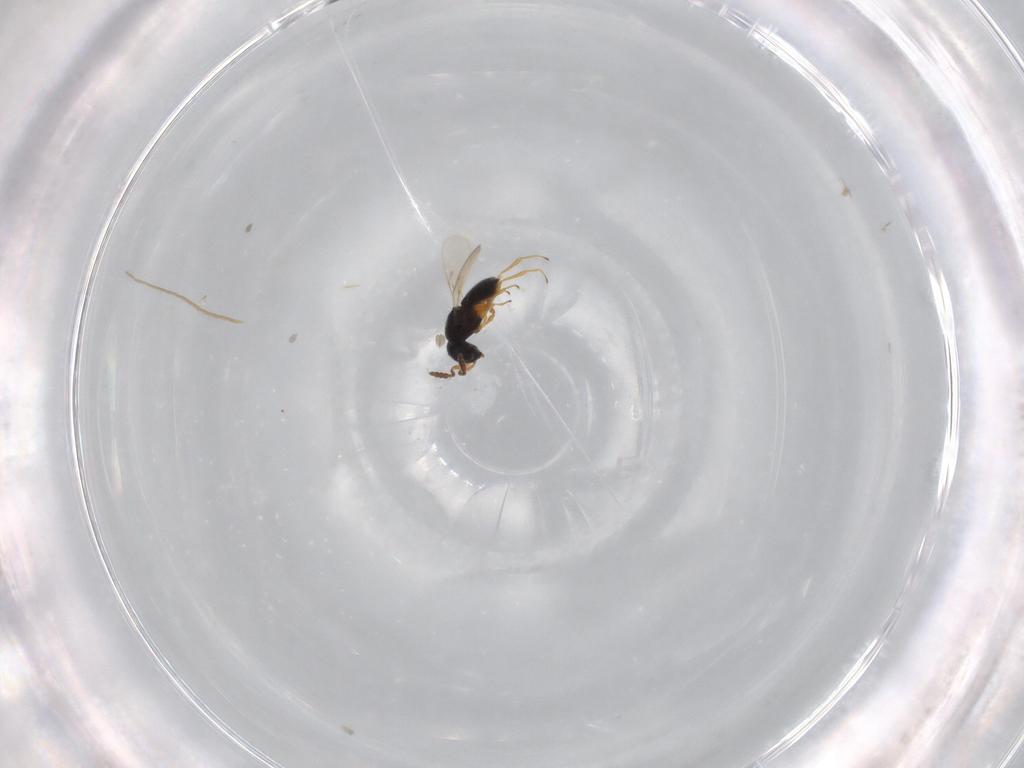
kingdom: Animalia
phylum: Arthropoda
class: Insecta
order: Hymenoptera
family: Scelionidae
